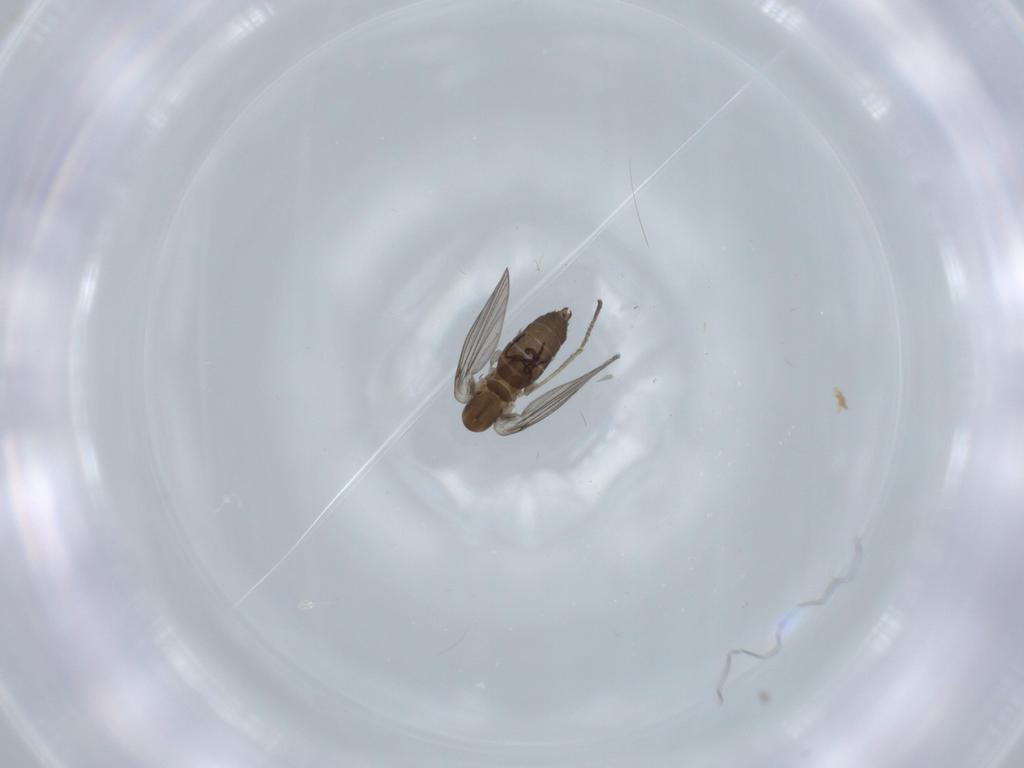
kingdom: Animalia
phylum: Arthropoda
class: Insecta
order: Diptera
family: Psychodidae
